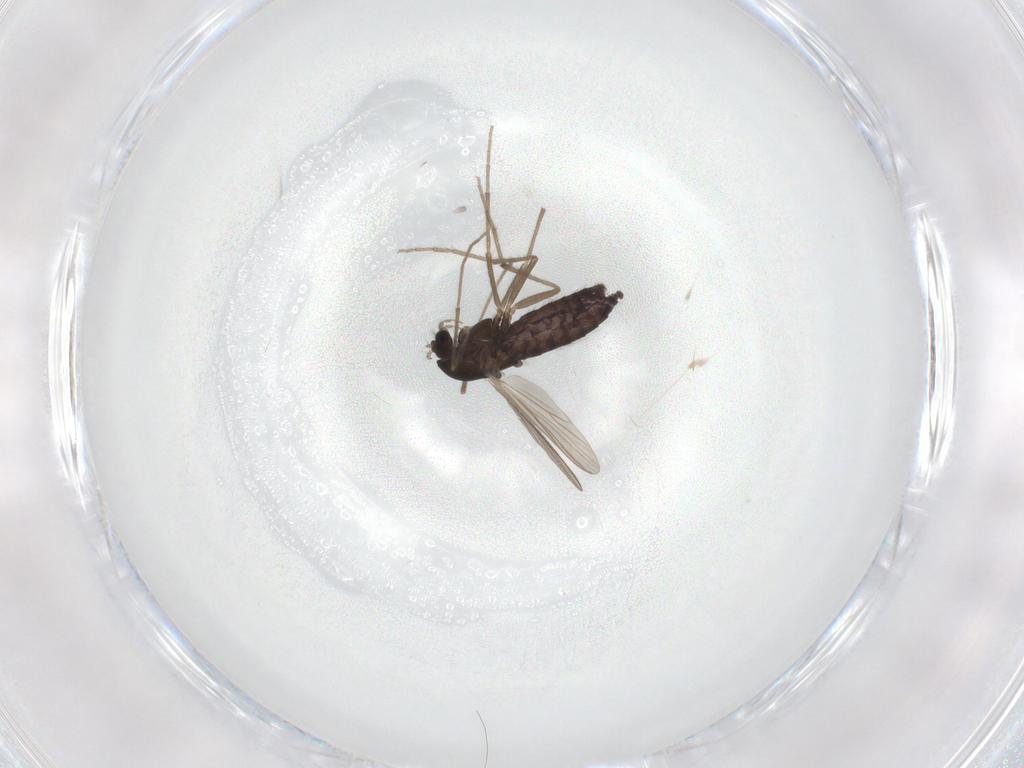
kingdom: Animalia
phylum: Arthropoda
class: Insecta
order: Diptera
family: Chironomidae
